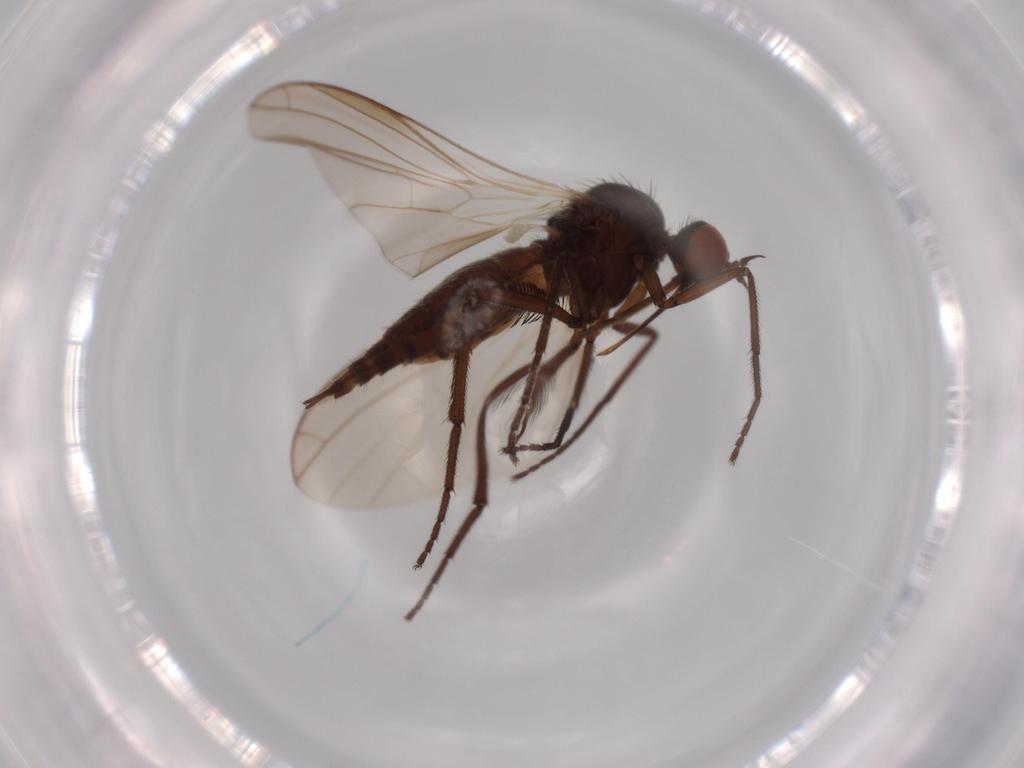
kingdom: Animalia
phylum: Arthropoda
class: Insecta
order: Diptera
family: Empididae
